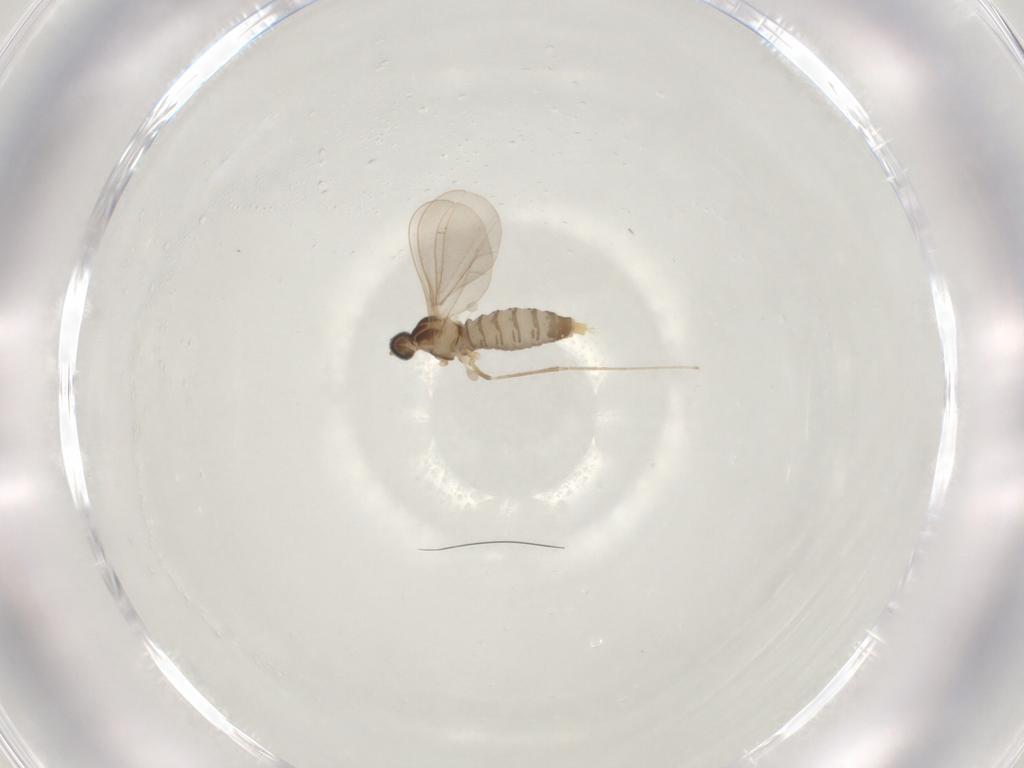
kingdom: Animalia
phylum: Arthropoda
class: Insecta
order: Diptera
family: Cecidomyiidae
